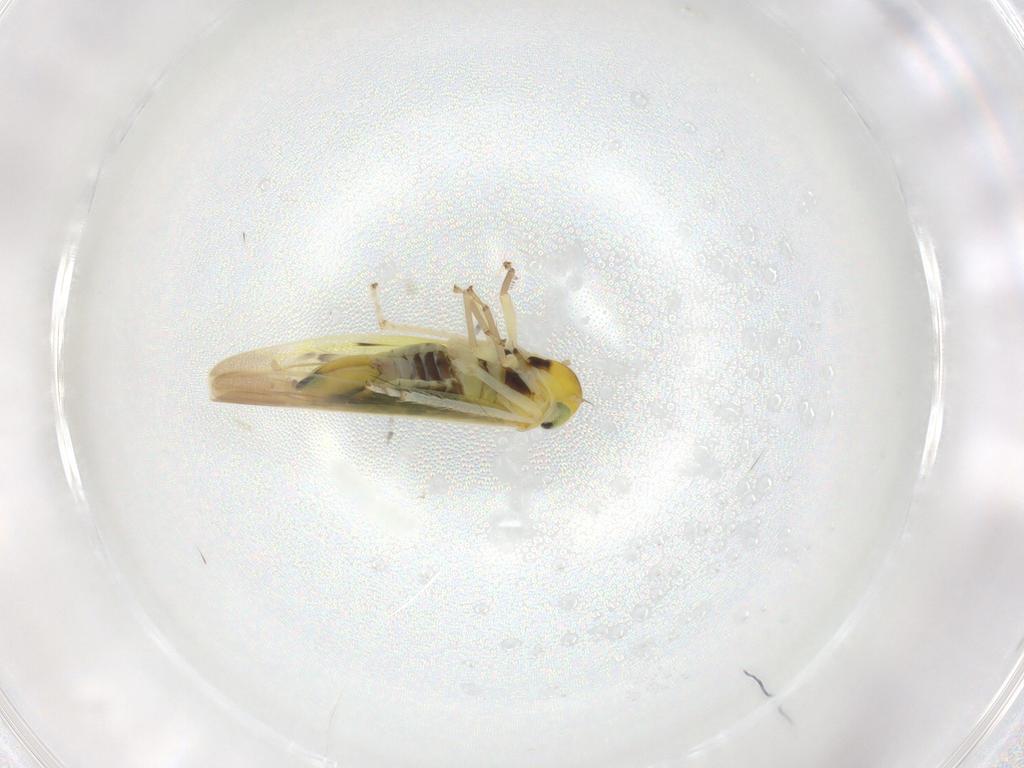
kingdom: Animalia
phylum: Arthropoda
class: Insecta
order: Hemiptera
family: Cicadellidae
